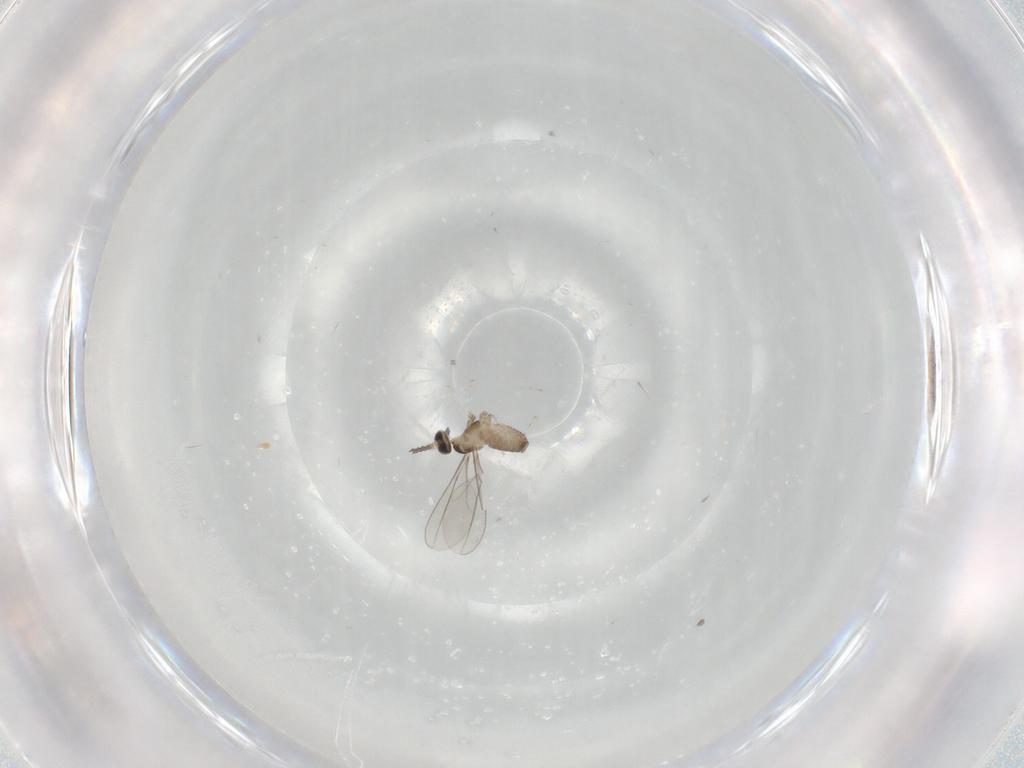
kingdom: Animalia
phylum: Arthropoda
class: Insecta
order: Diptera
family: Cecidomyiidae
